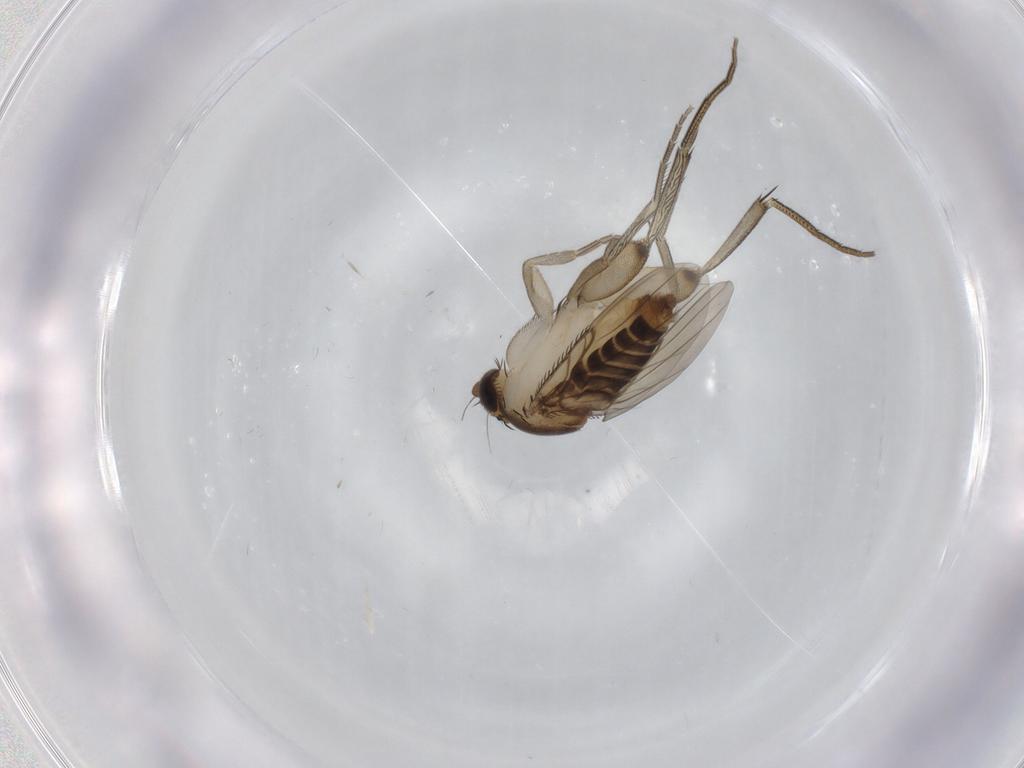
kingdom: Animalia
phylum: Arthropoda
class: Insecta
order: Diptera
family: Phoridae
